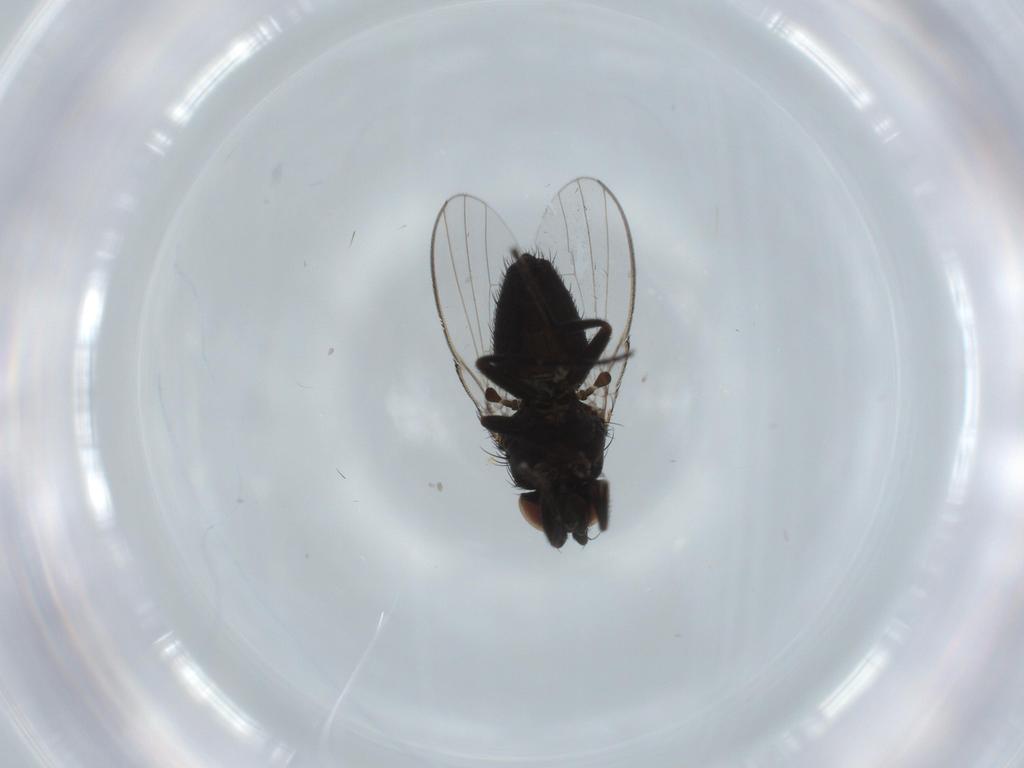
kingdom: Animalia
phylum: Arthropoda
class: Insecta
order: Diptera
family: Milichiidae
